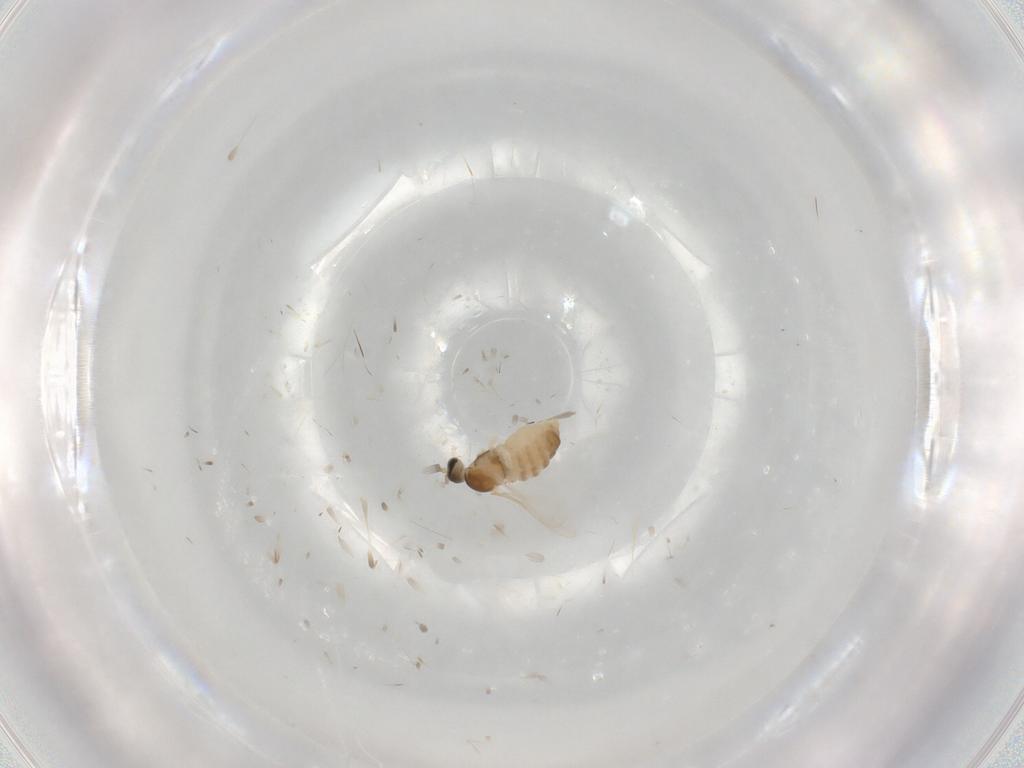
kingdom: Animalia
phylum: Arthropoda
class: Insecta
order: Diptera
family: Cecidomyiidae
